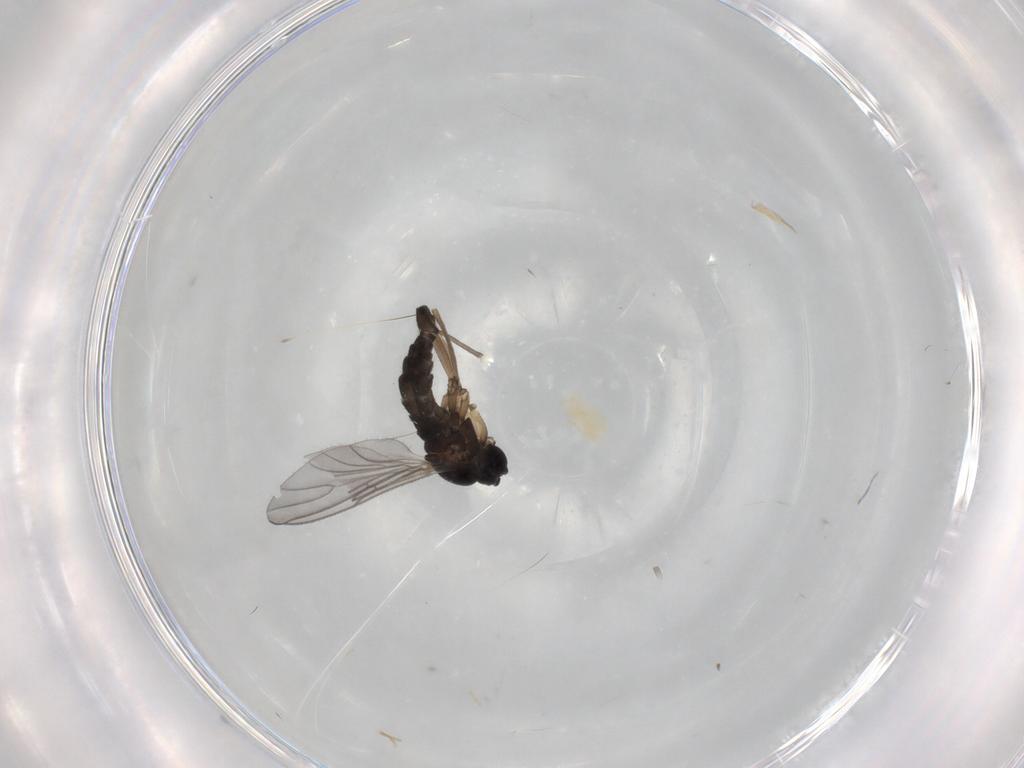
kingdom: Animalia
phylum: Arthropoda
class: Insecta
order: Diptera
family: Sciaridae
